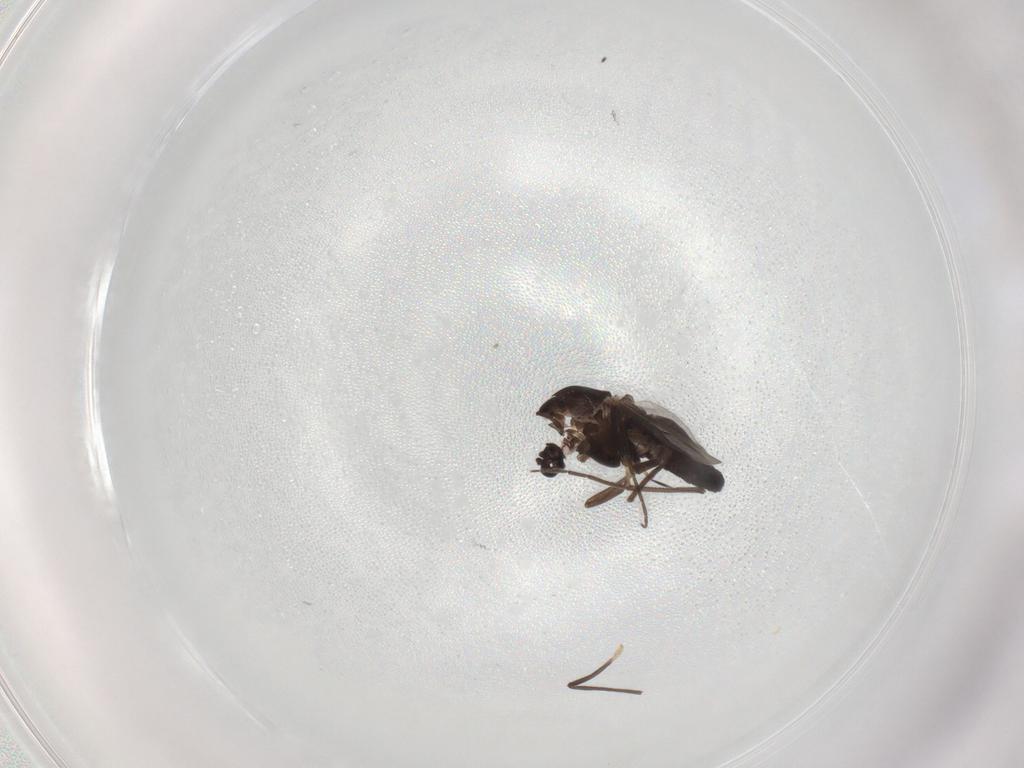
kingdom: Animalia
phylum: Arthropoda
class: Insecta
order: Diptera
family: Chironomidae
